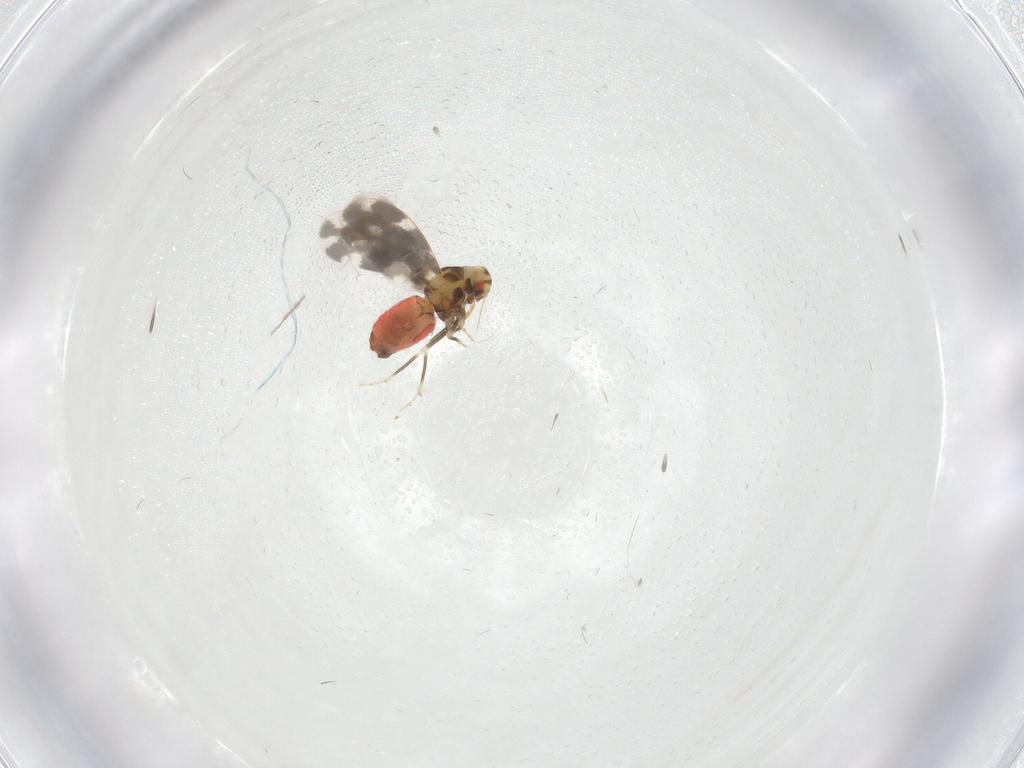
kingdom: Animalia
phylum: Arthropoda
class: Insecta
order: Hemiptera
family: Aleyrodidae
